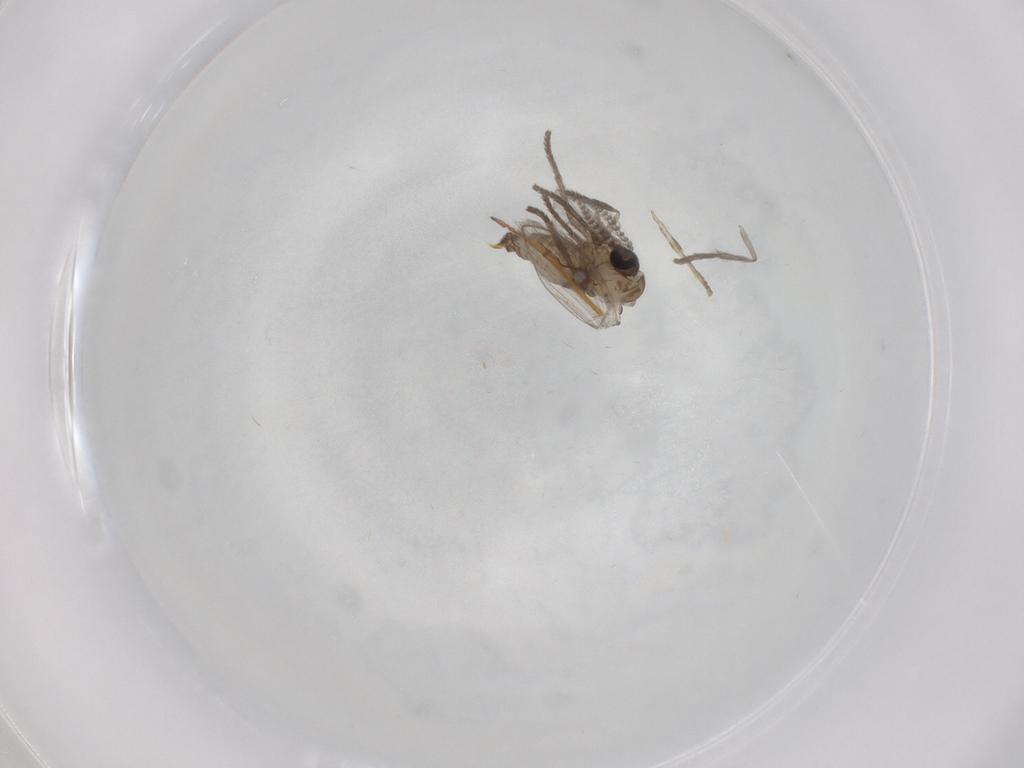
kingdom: Animalia
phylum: Arthropoda
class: Insecta
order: Diptera
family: Psychodidae
